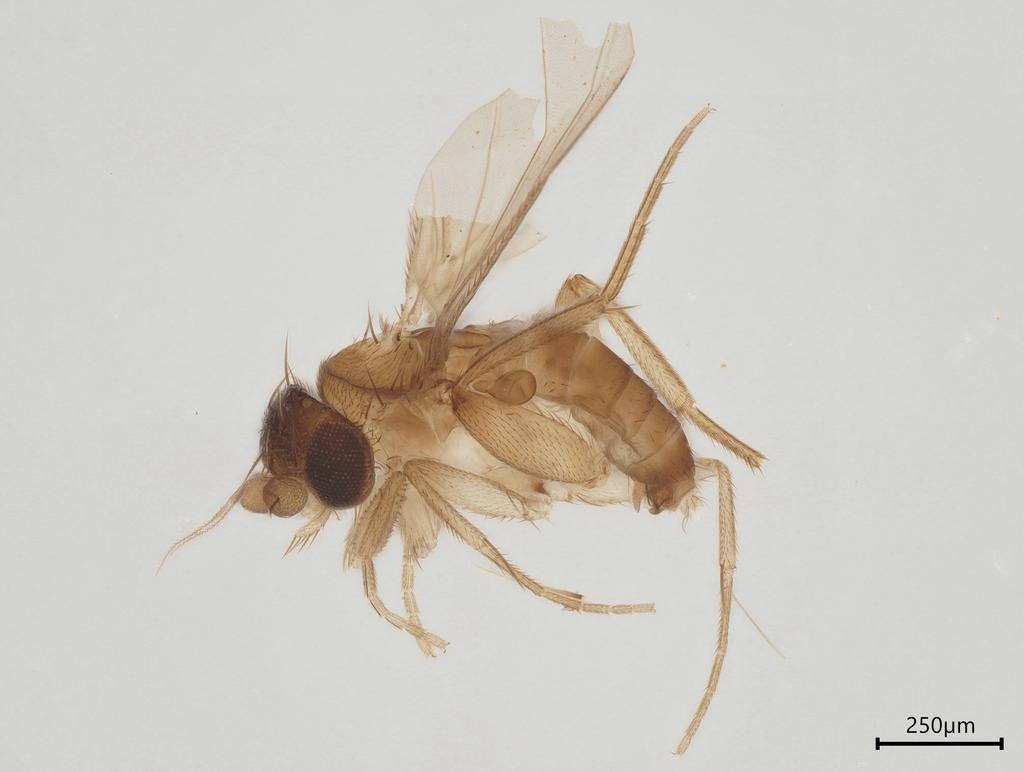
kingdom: Animalia
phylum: Arthropoda
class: Insecta
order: Diptera
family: Phoridae
